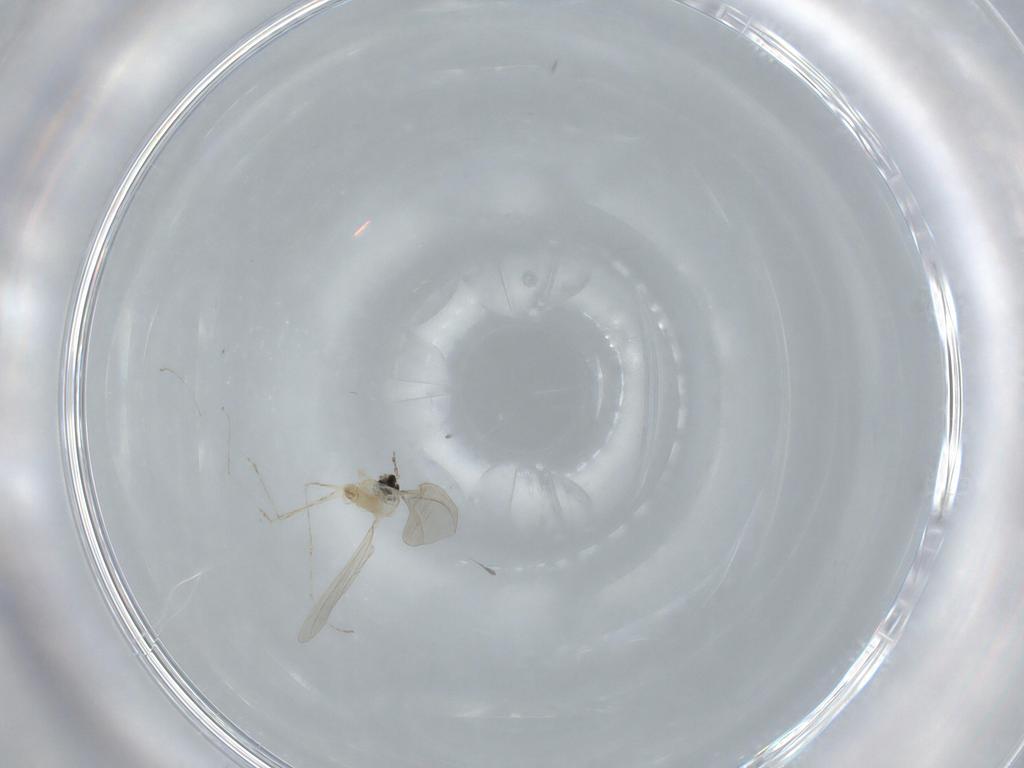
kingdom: Animalia
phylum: Arthropoda
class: Insecta
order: Diptera
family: Cecidomyiidae
